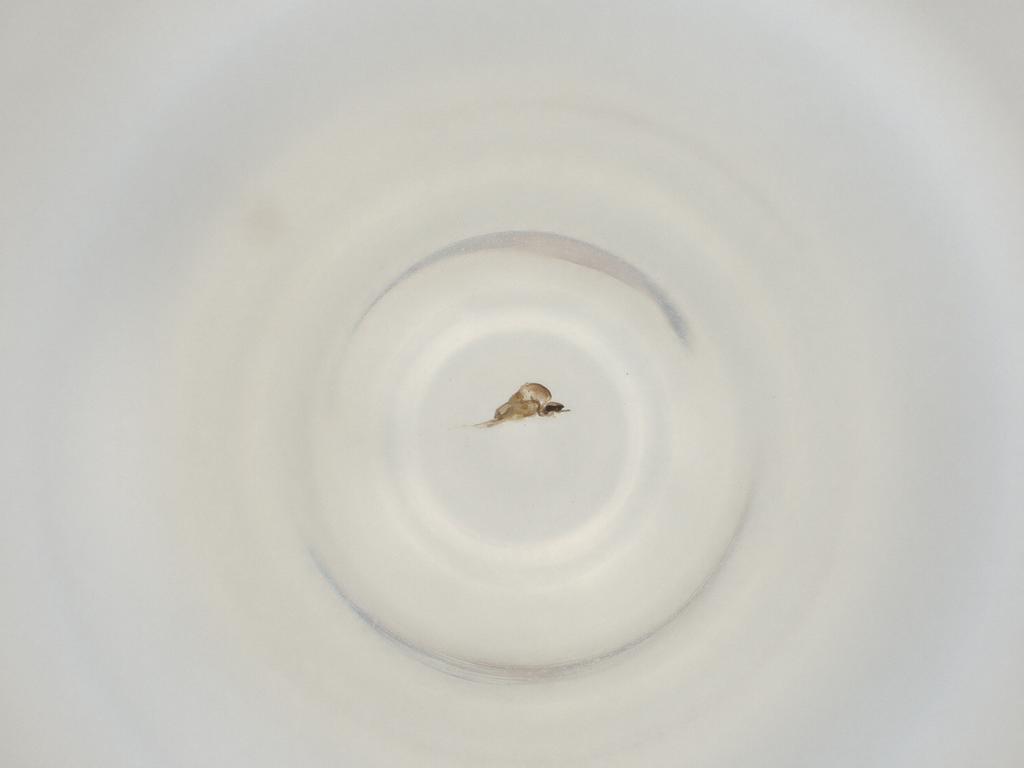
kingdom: Animalia
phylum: Arthropoda
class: Insecta
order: Diptera
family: Cecidomyiidae
